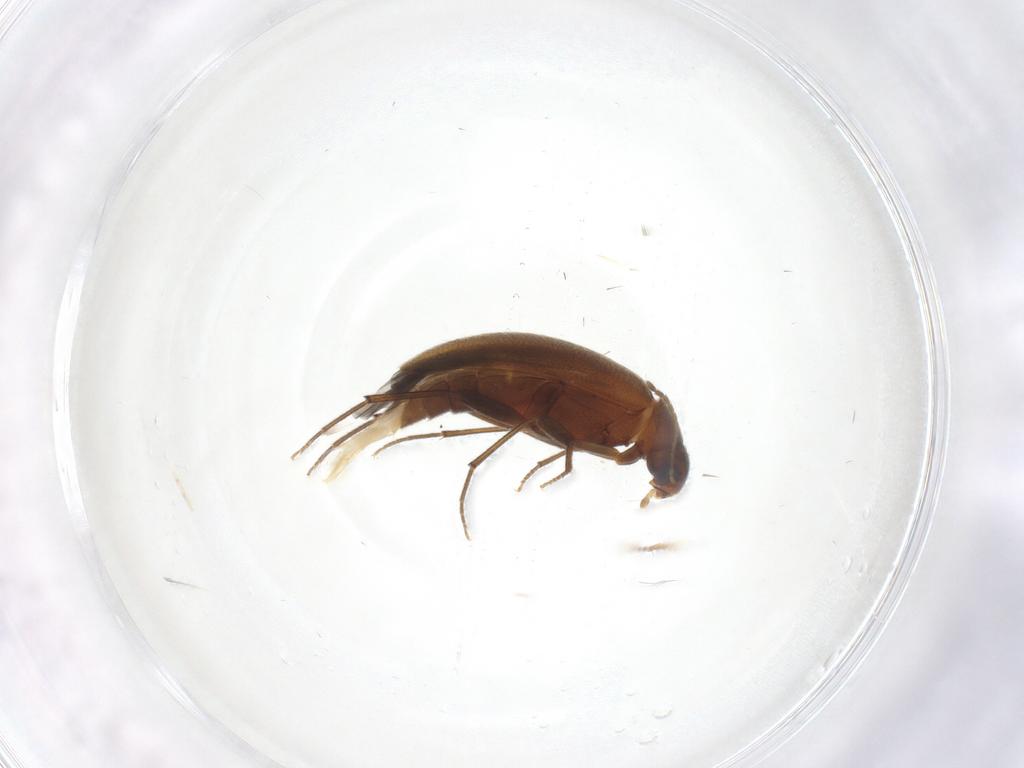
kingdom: Animalia
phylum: Arthropoda
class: Insecta
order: Coleoptera
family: Melandryidae
